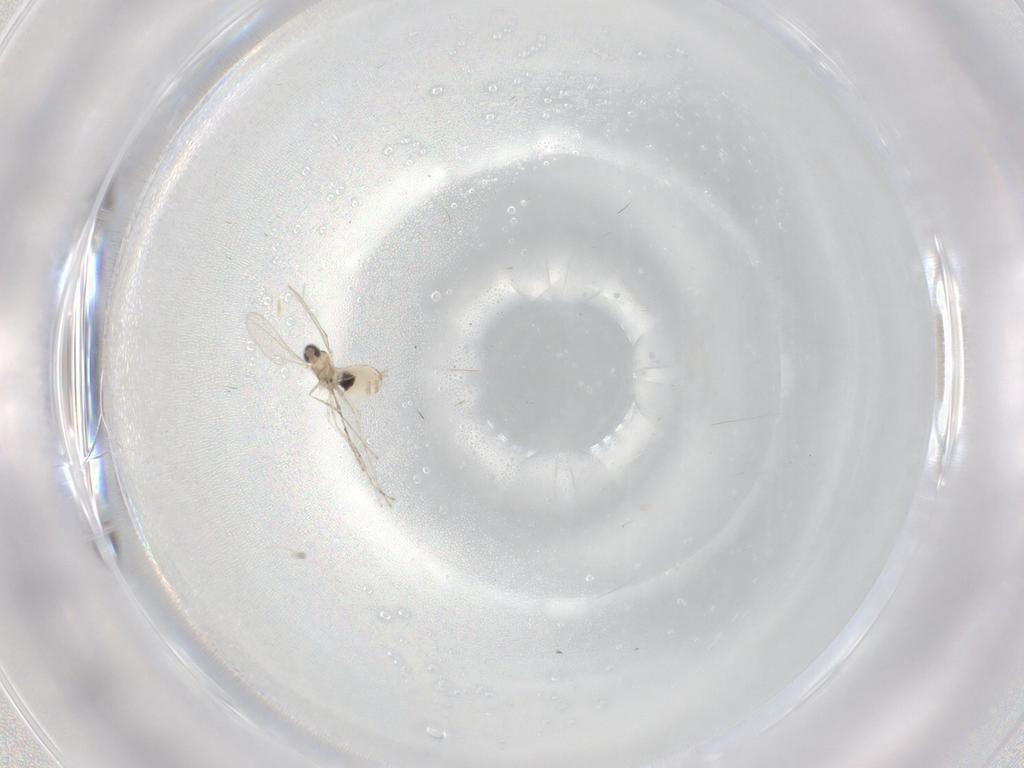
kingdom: Animalia
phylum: Arthropoda
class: Insecta
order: Diptera
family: Cecidomyiidae
